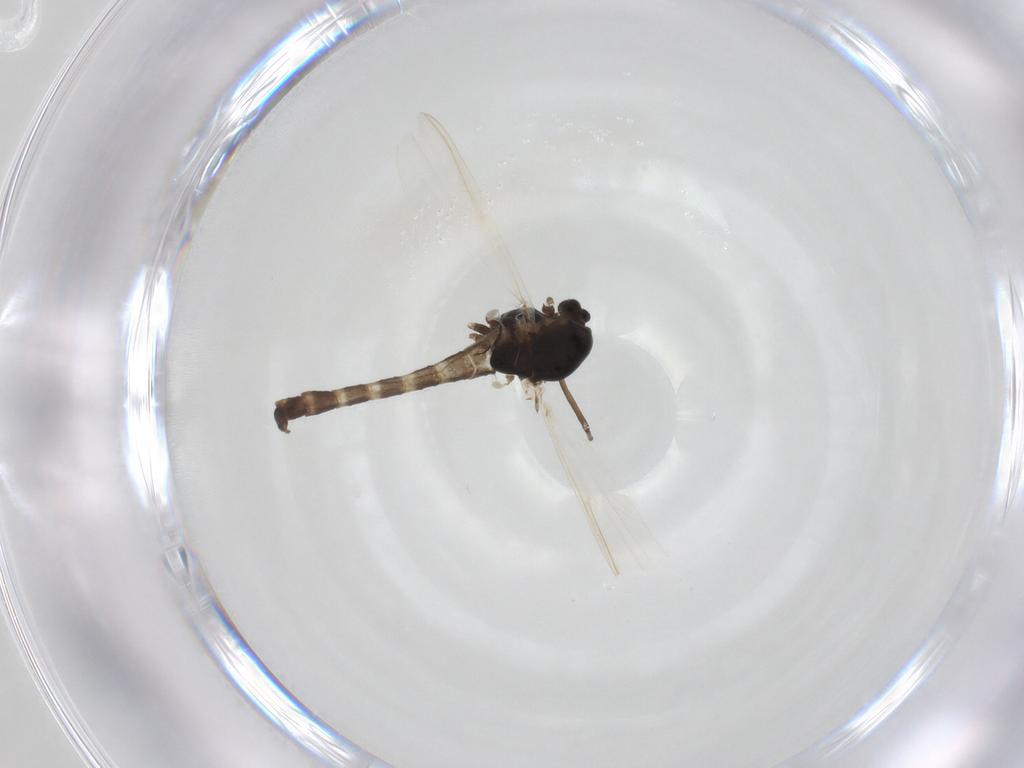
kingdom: Animalia
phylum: Arthropoda
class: Insecta
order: Diptera
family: Chironomidae
